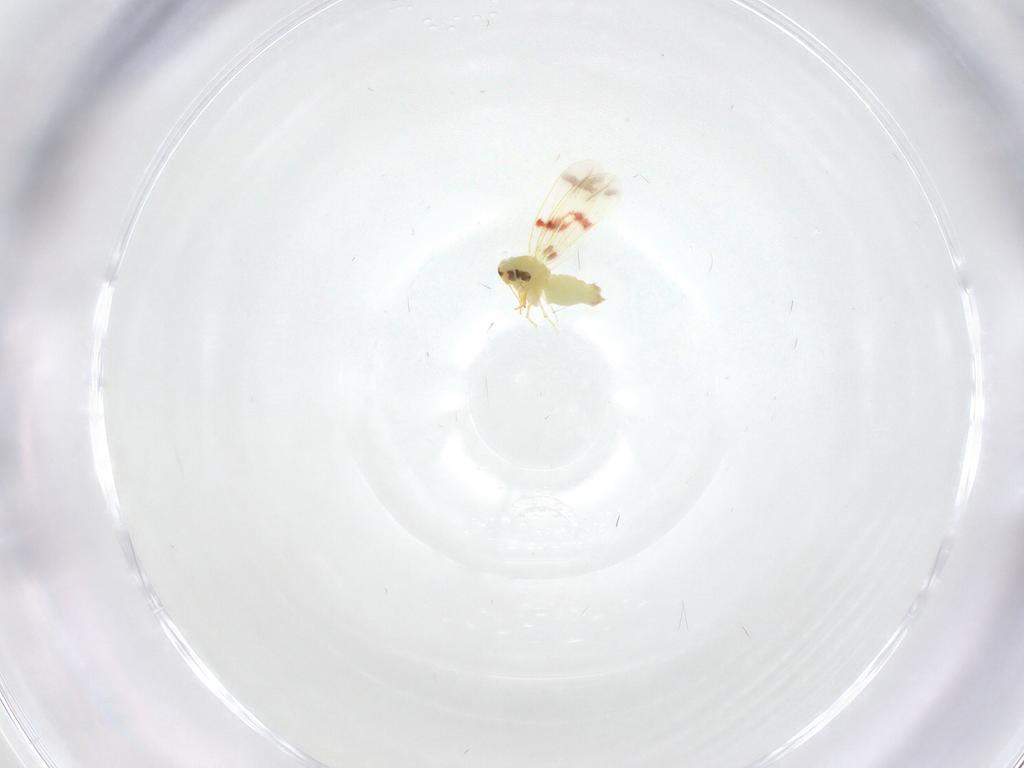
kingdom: Animalia
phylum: Arthropoda
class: Insecta
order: Hemiptera
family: Aleyrodidae
